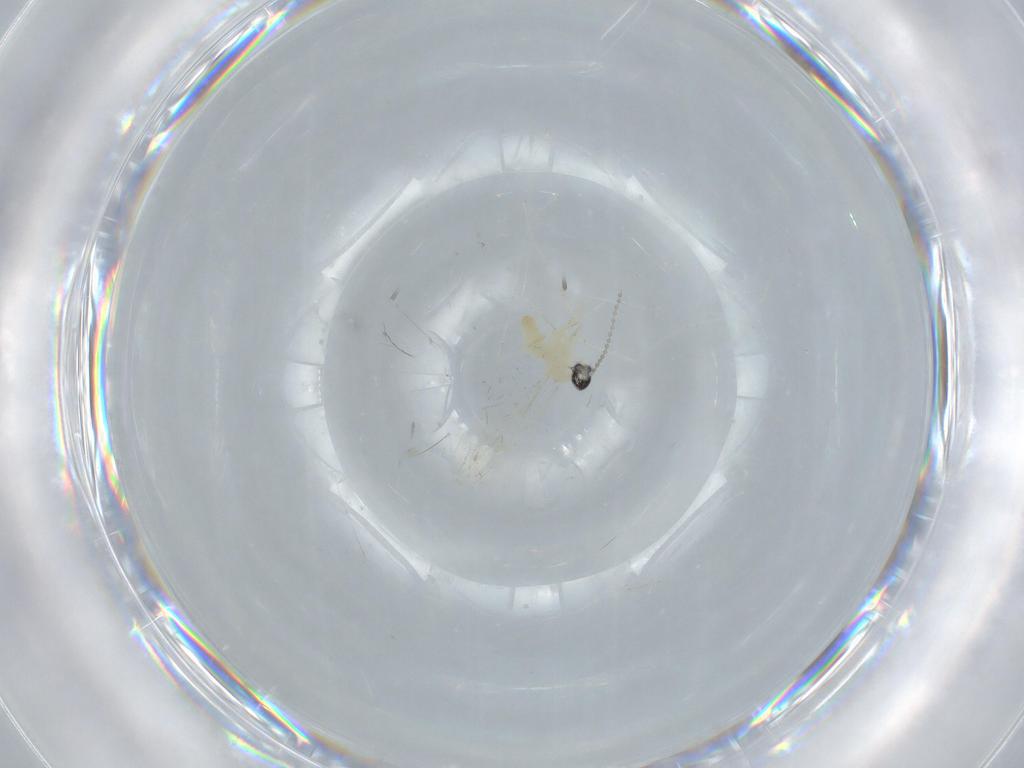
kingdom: Animalia
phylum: Arthropoda
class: Insecta
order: Diptera
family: Cecidomyiidae
